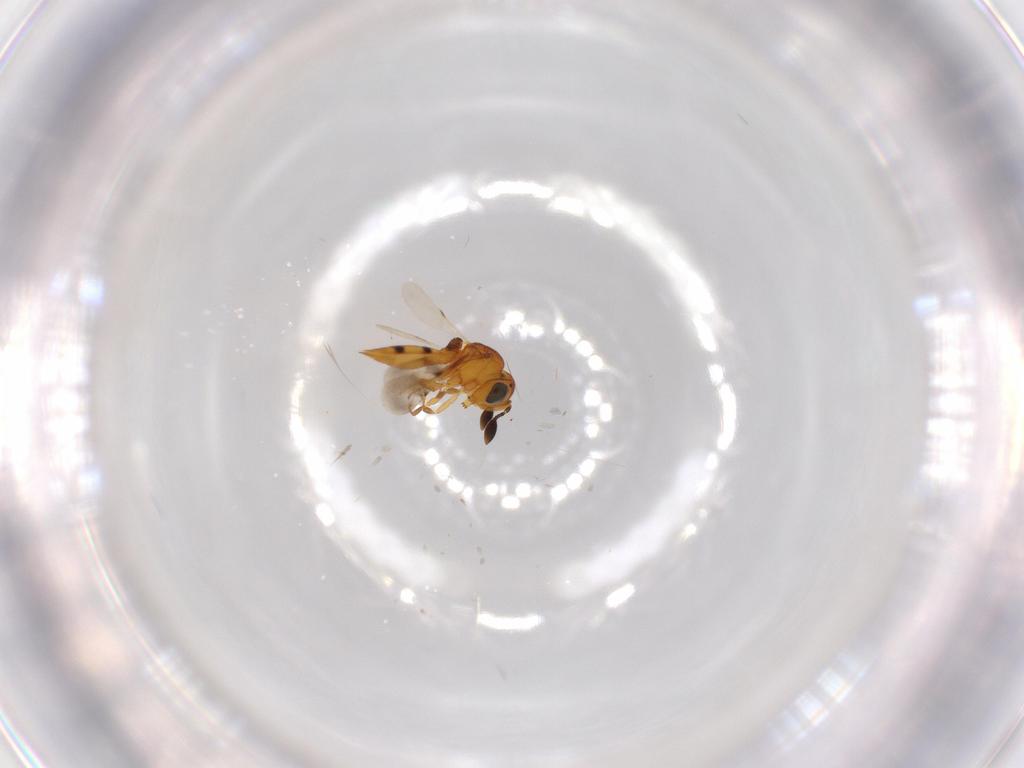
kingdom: Animalia
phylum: Arthropoda
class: Insecta
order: Hymenoptera
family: Scelionidae
